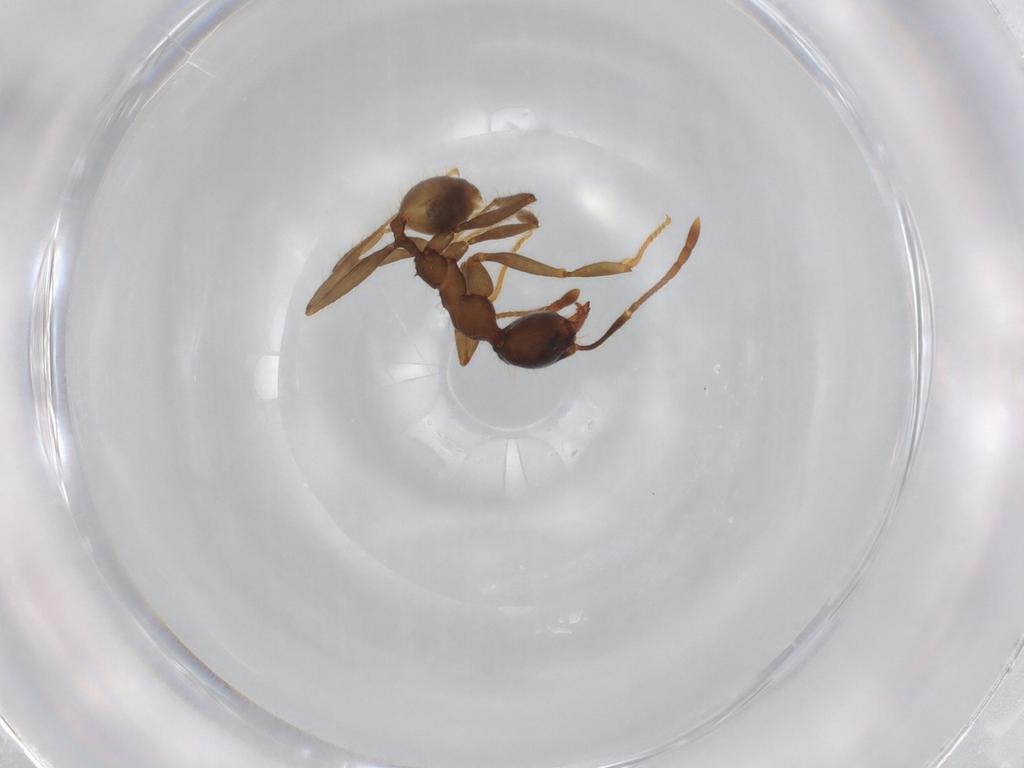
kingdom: Animalia
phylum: Arthropoda
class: Insecta
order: Hymenoptera
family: Formicidae
